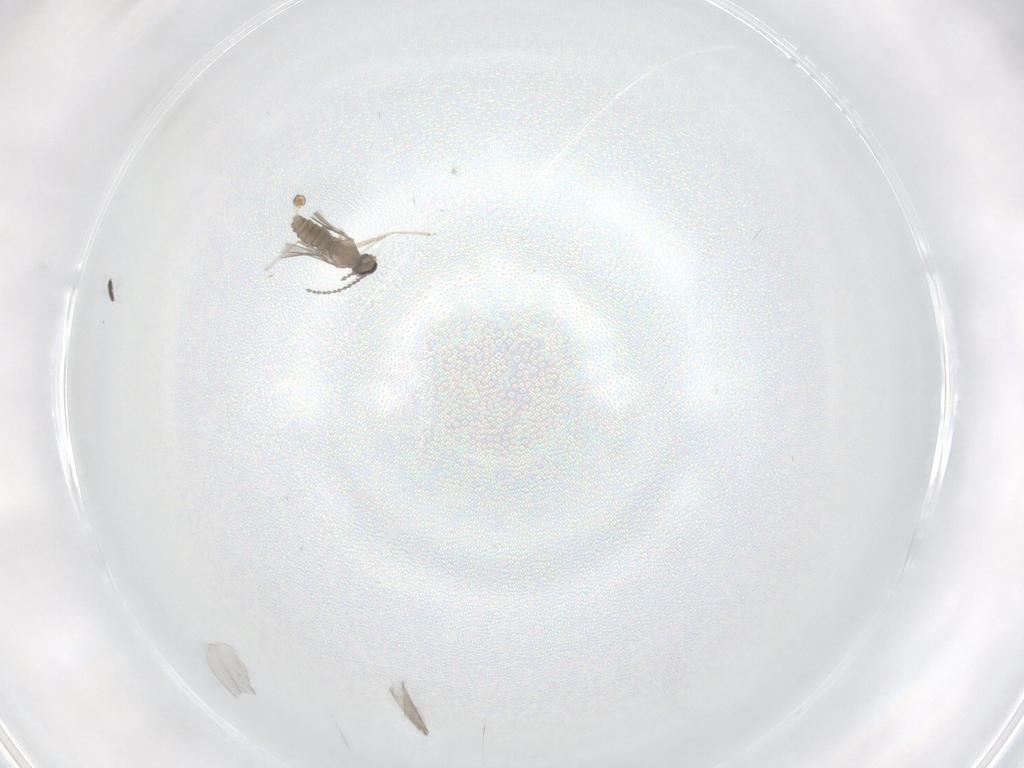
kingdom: Animalia
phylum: Arthropoda
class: Insecta
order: Diptera
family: Cecidomyiidae
